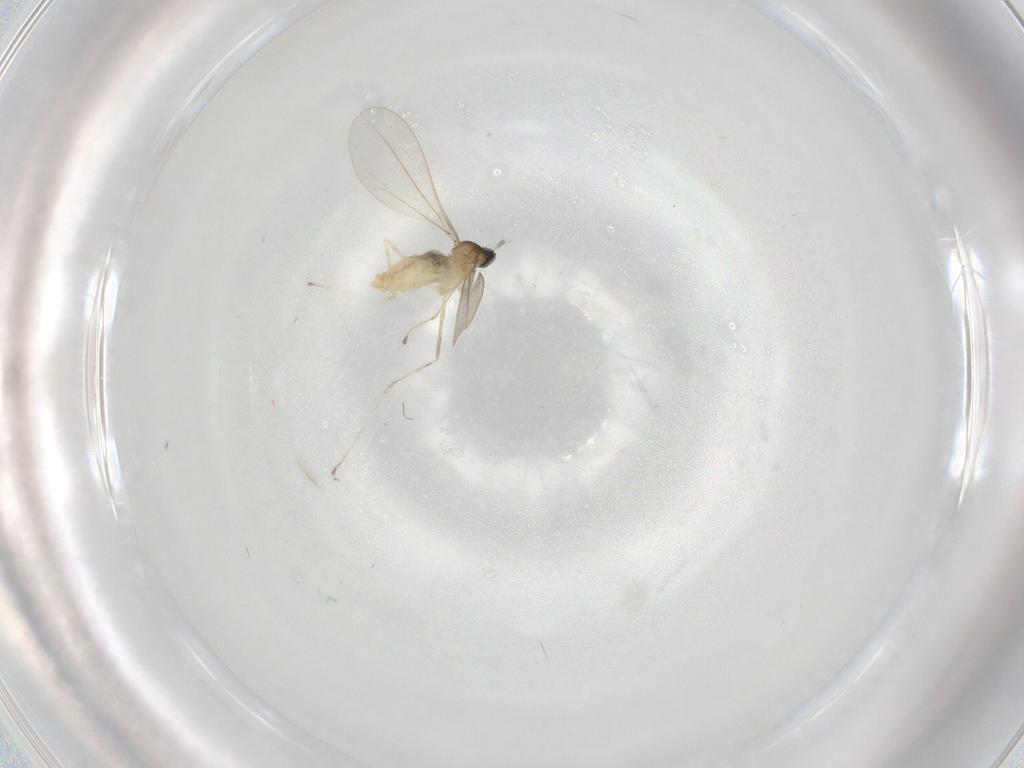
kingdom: Animalia
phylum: Arthropoda
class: Insecta
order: Diptera
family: Cecidomyiidae
